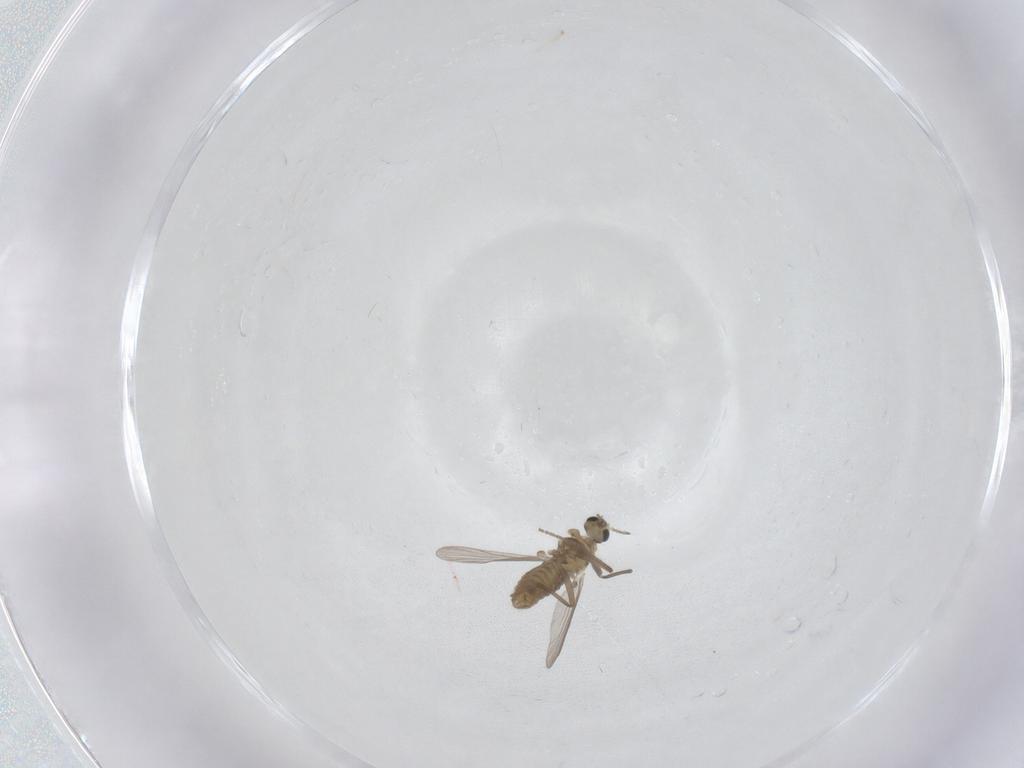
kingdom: Animalia
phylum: Arthropoda
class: Insecta
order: Diptera
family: Chironomidae
